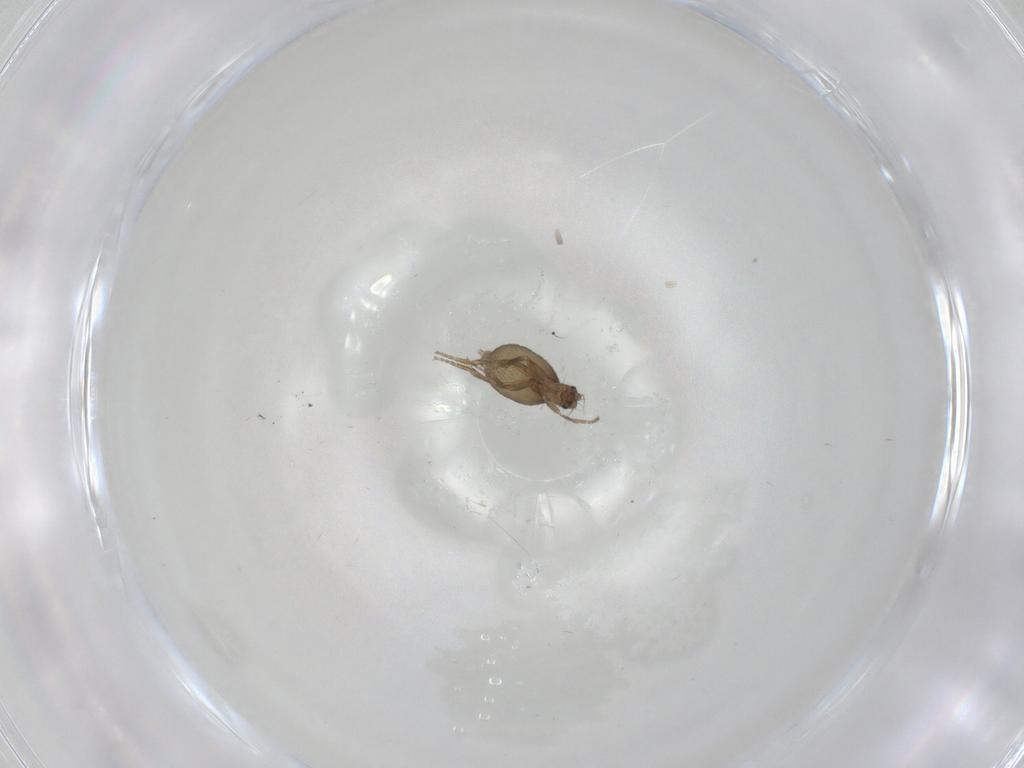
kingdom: Animalia
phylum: Arthropoda
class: Insecta
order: Diptera
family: Phoridae
